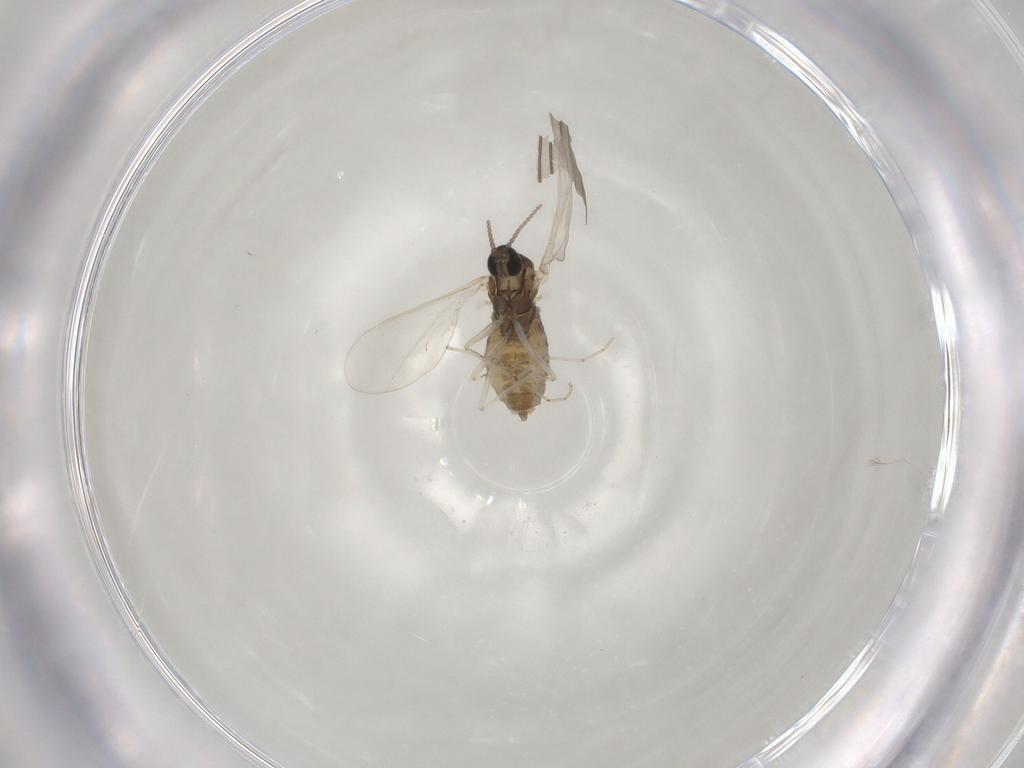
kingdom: Animalia
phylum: Arthropoda
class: Insecta
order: Diptera
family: Cecidomyiidae
